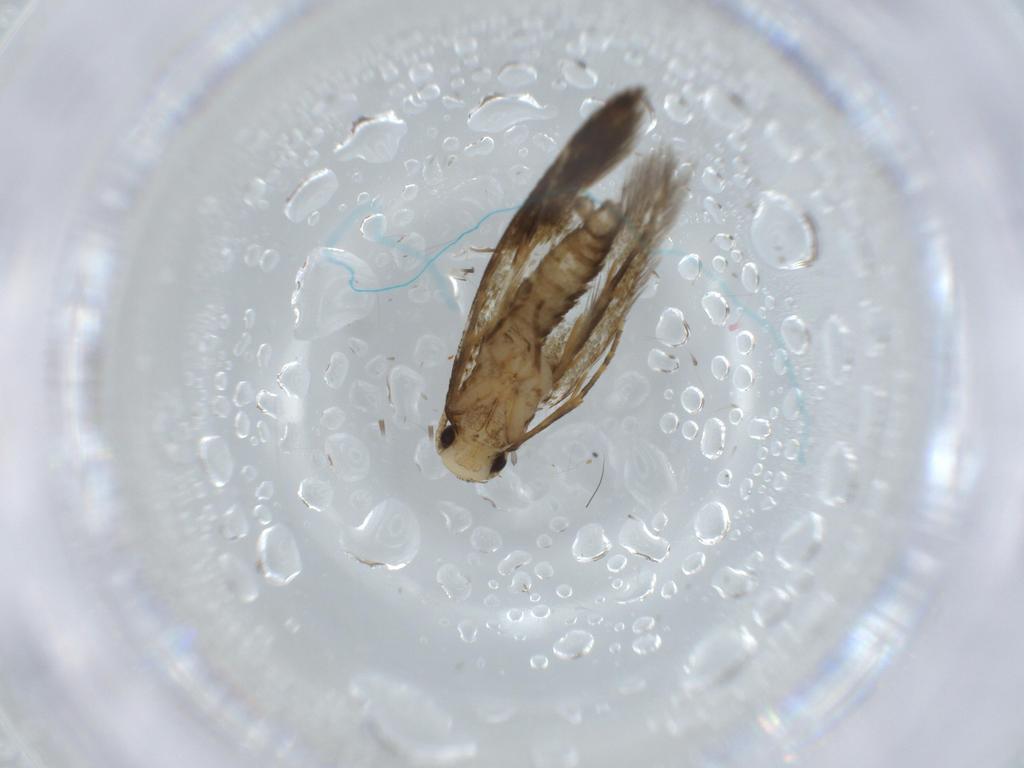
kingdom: Animalia
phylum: Arthropoda
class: Insecta
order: Lepidoptera
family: Tineidae
